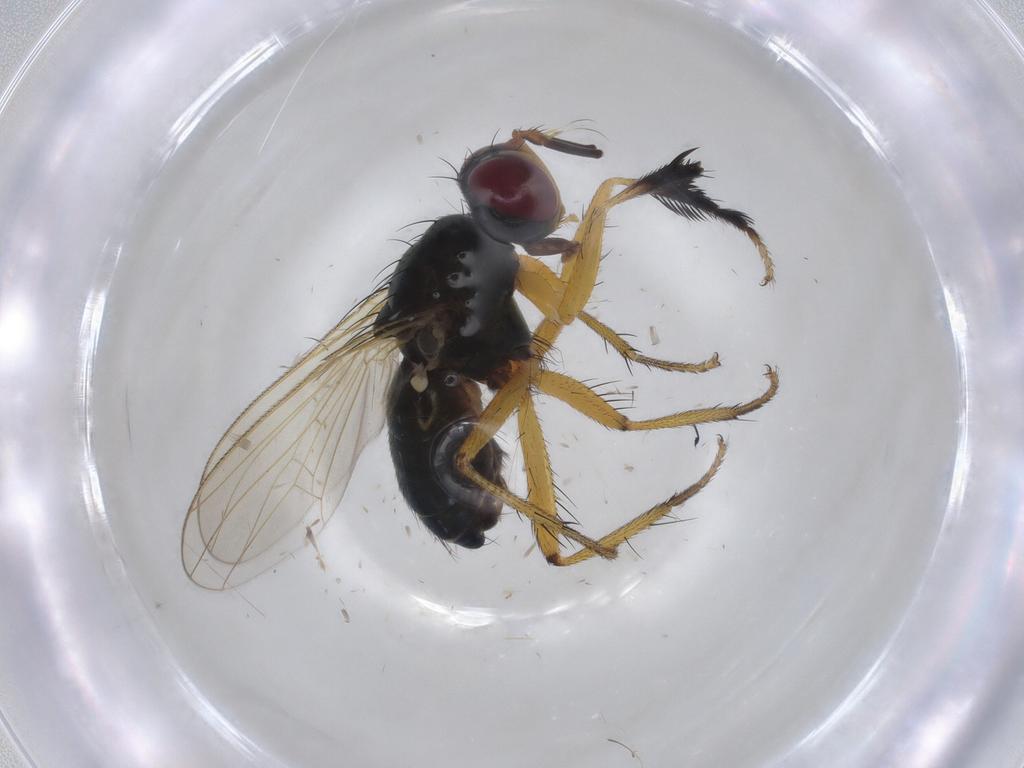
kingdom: Animalia
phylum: Arthropoda
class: Insecta
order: Diptera
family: Muscidae
